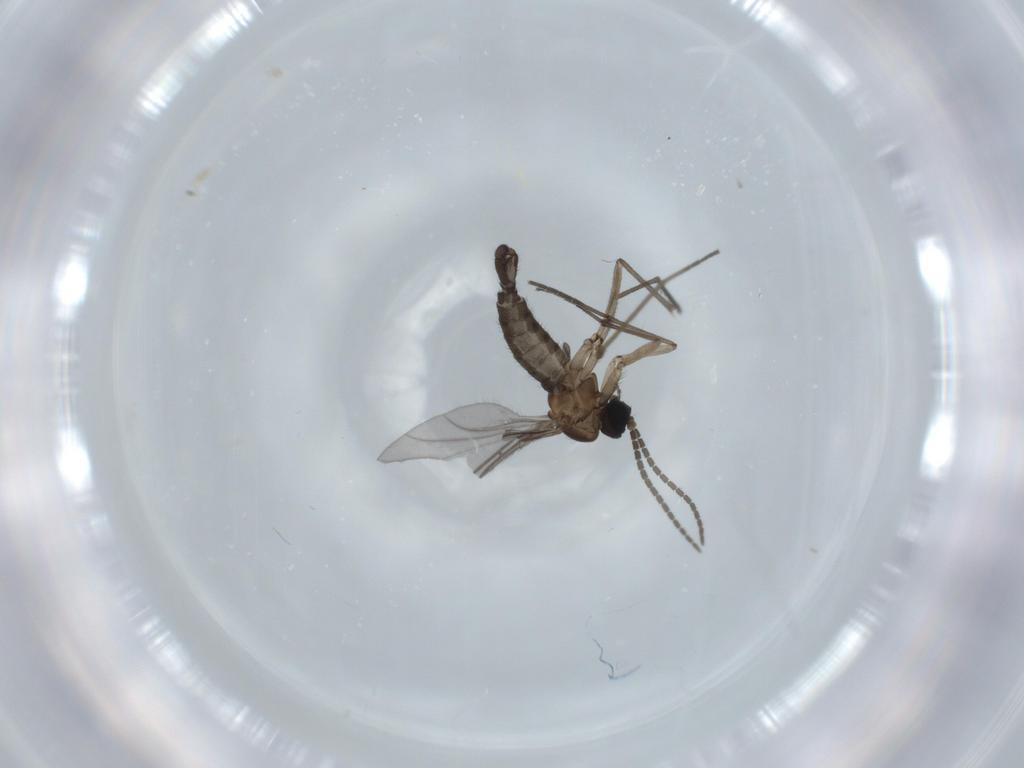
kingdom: Animalia
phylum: Arthropoda
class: Insecta
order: Diptera
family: Sciaridae
